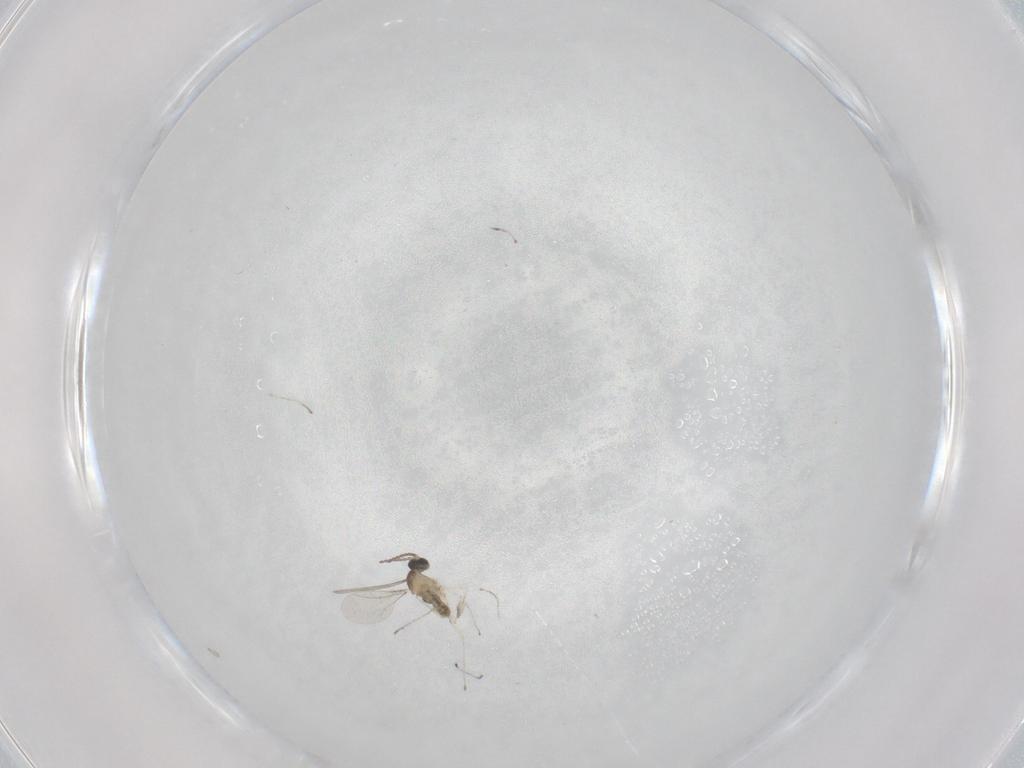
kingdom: Animalia
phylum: Arthropoda
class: Insecta
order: Diptera
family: Cecidomyiidae
